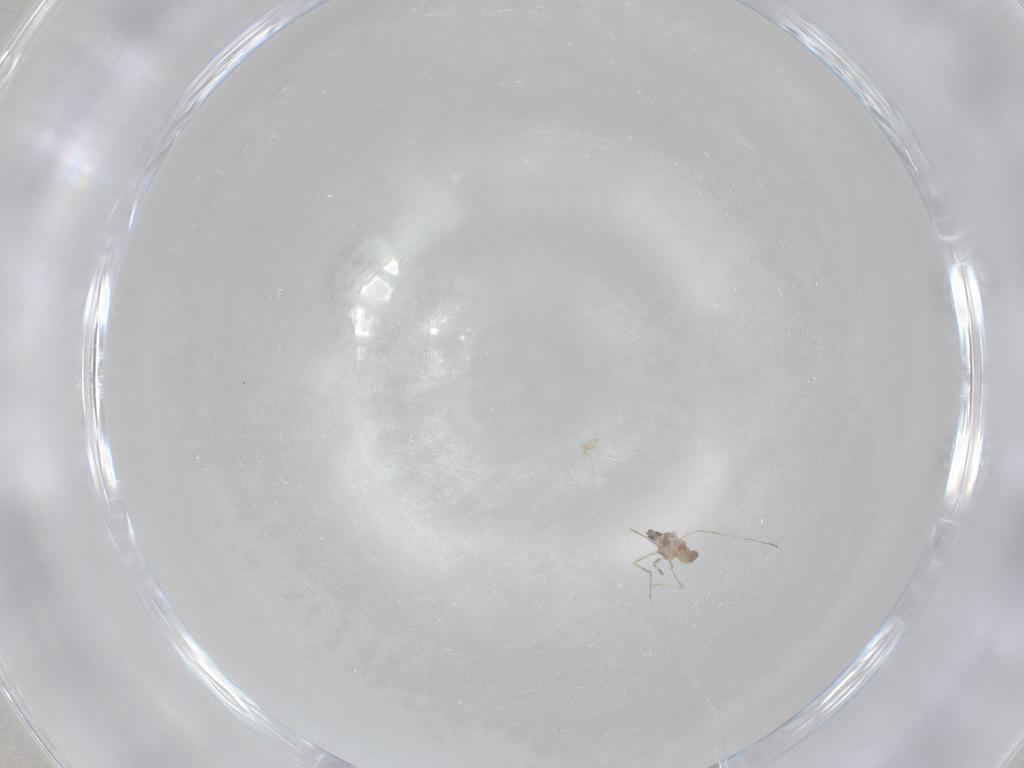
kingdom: Animalia
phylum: Arthropoda
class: Insecta
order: Diptera
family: Cecidomyiidae
